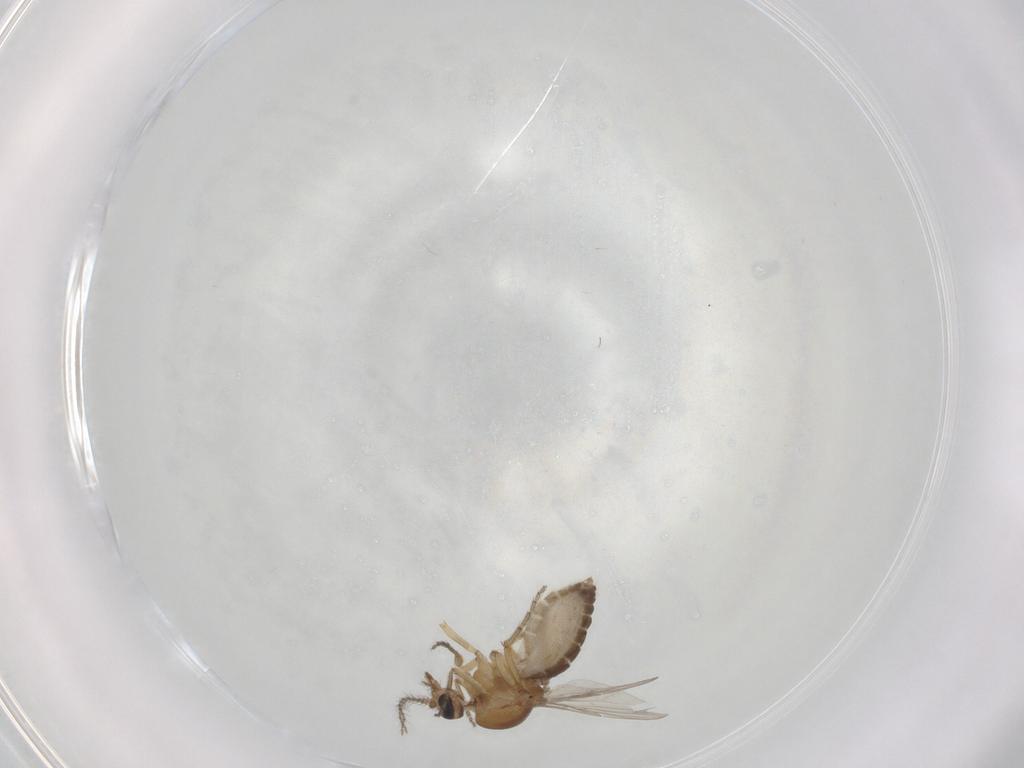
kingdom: Animalia
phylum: Arthropoda
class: Insecta
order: Diptera
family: Ceratopogonidae
